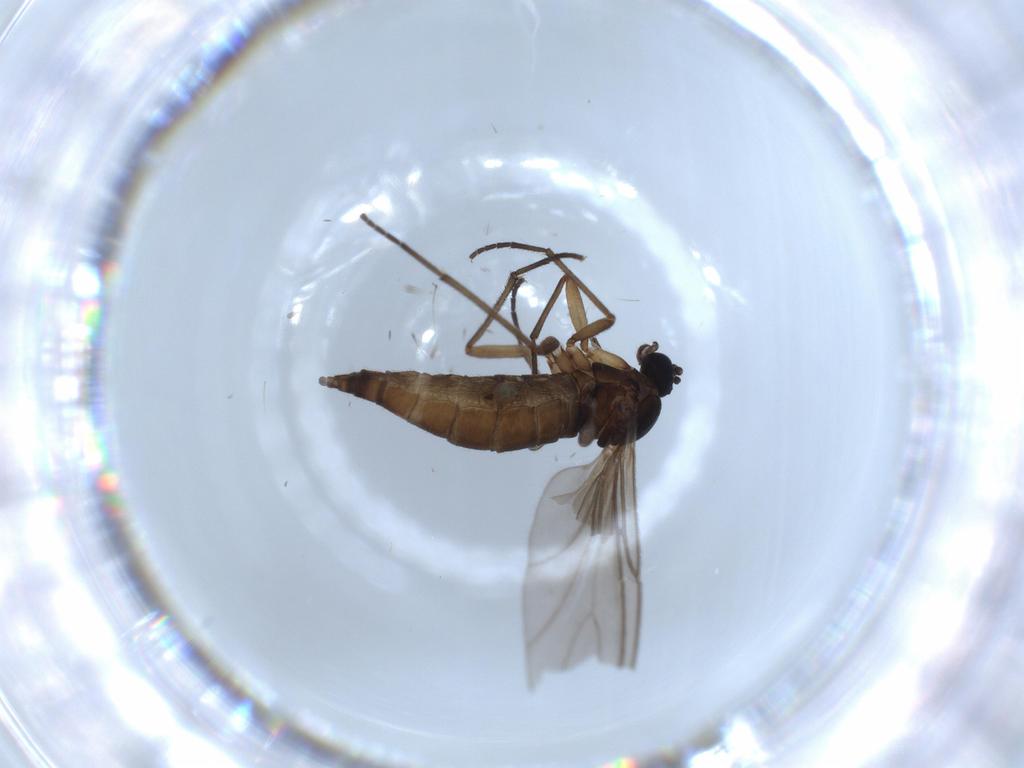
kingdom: Animalia
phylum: Arthropoda
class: Insecta
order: Diptera
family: Sciaridae
